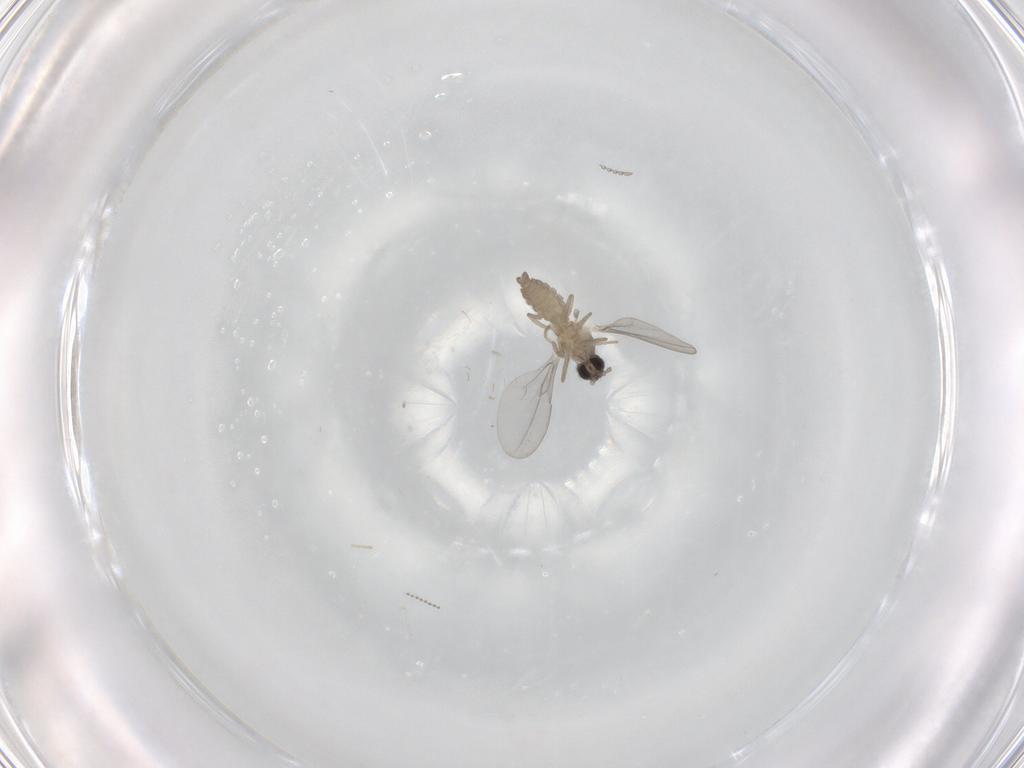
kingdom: Animalia
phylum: Arthropoda
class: Insecta
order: Diptera
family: Cecidomyiidae
